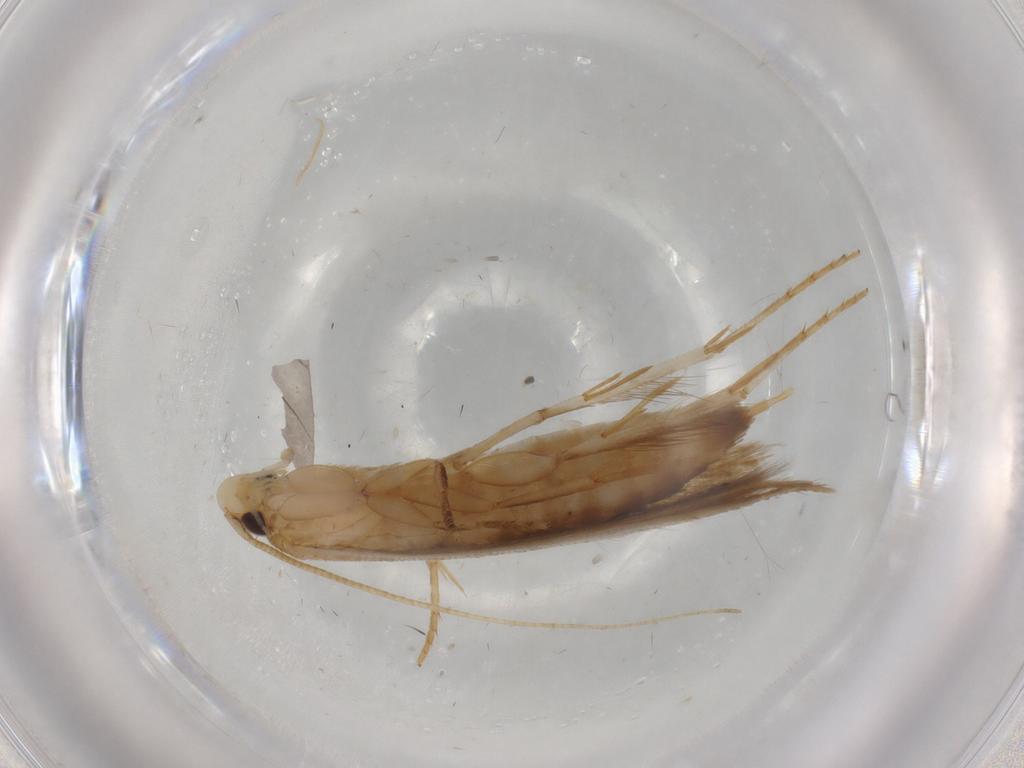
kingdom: Animalia
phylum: Arthropoda
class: Insecta
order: Lepidoptera
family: Tineidae
